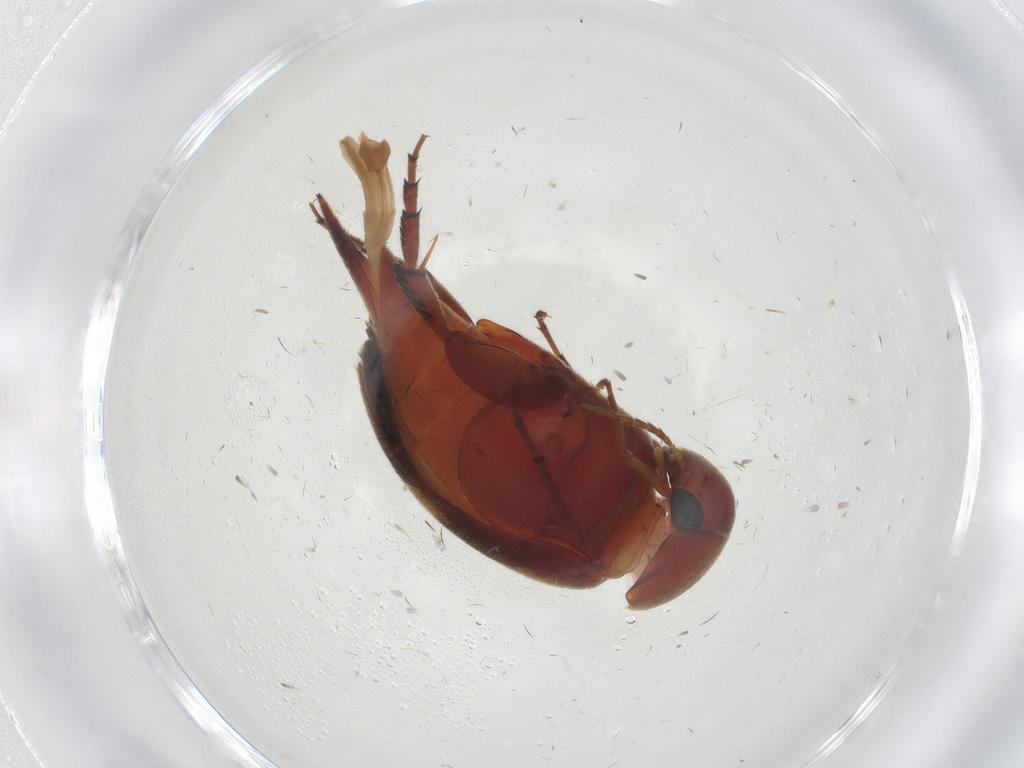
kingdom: Animalia
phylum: Arthropoda
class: Insecta
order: Coleoptera
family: Mordellidae
